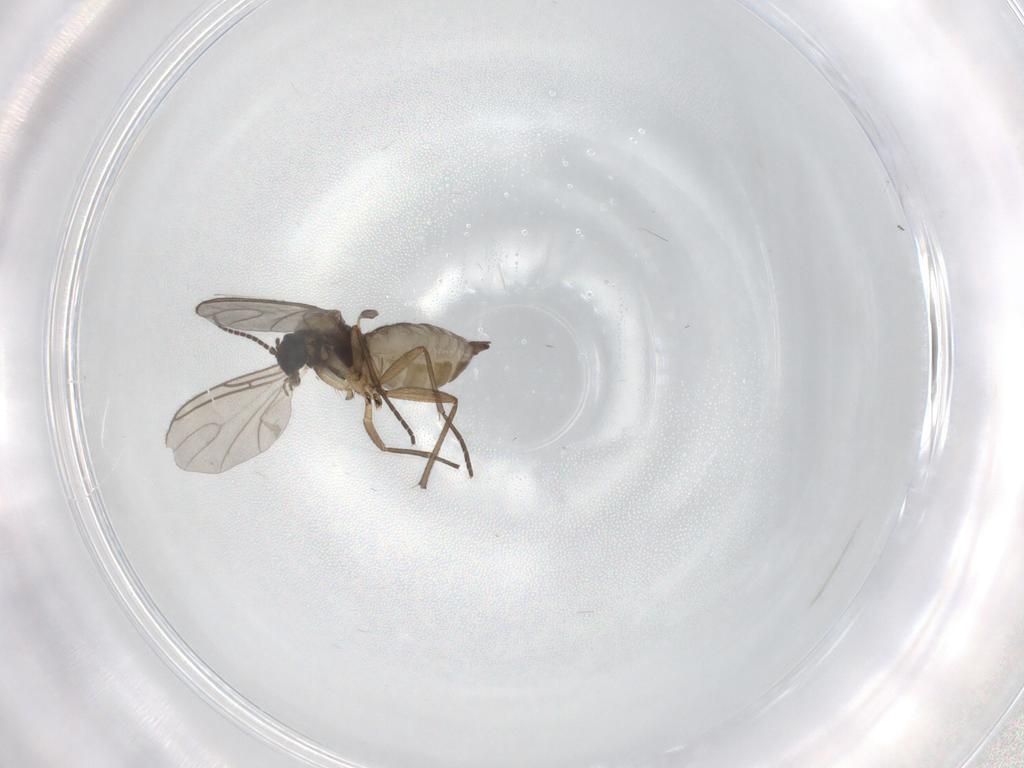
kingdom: Animalia
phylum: Arthropoda
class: Insecta
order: Diptera
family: Sciaridae
